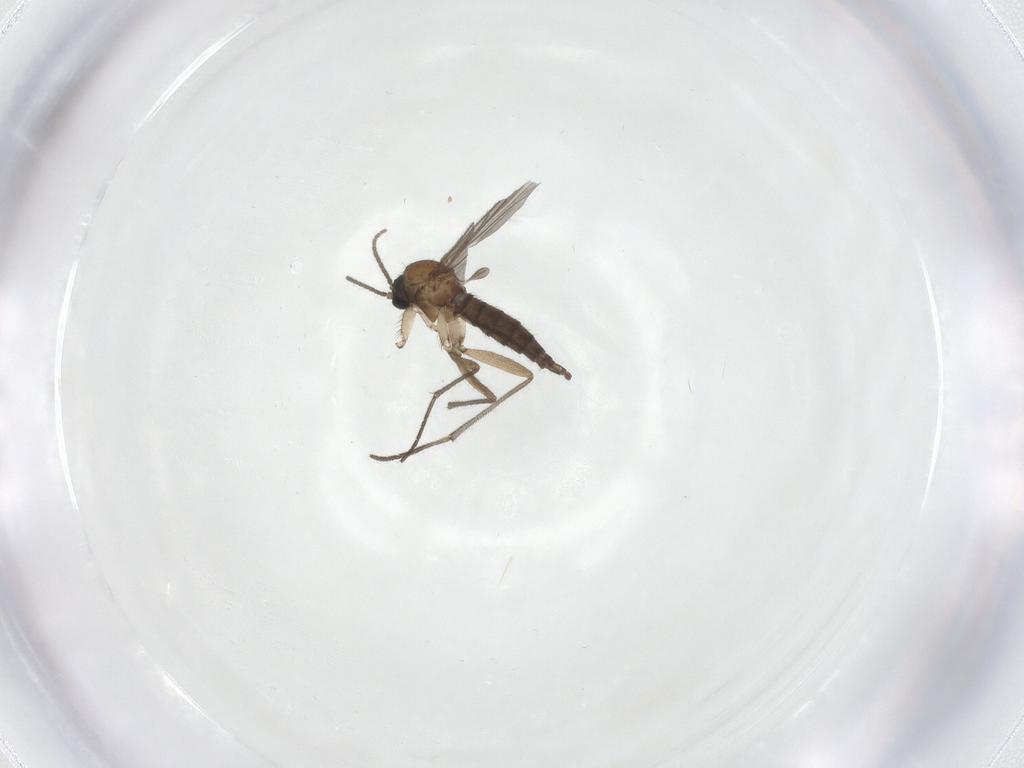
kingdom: Animalia
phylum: Arthropoda
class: Insecta
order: Diptera
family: Sciaridae
